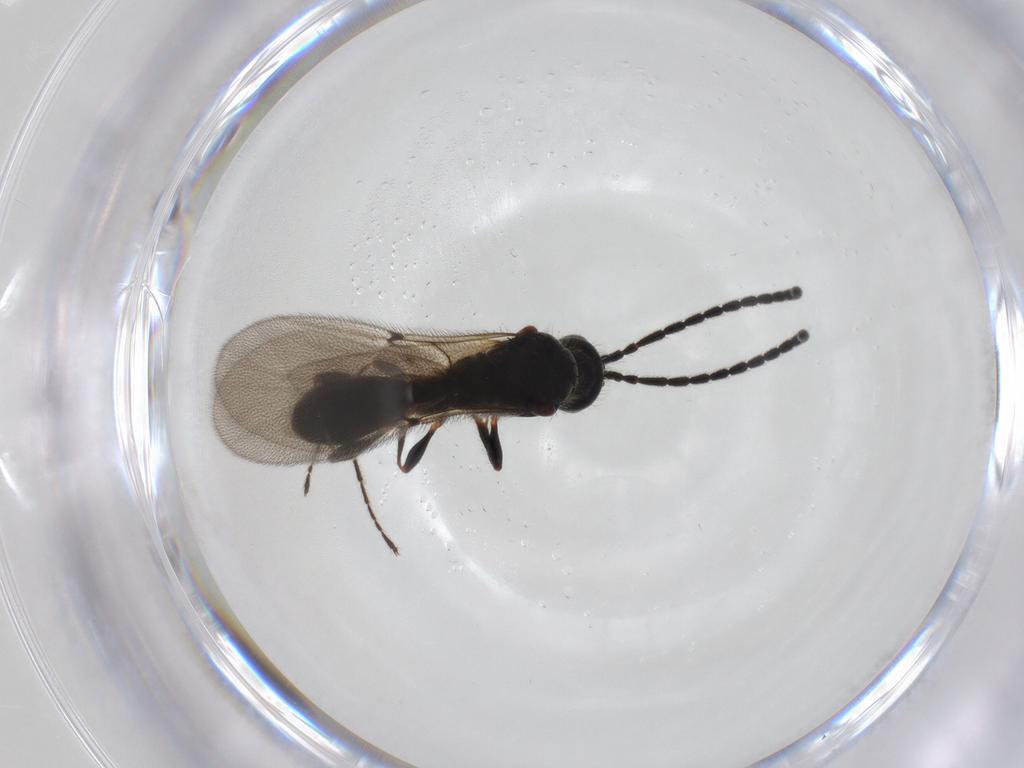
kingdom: Animalia
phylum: Arthropoda
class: Insecta
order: Hymenoptera
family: Diapriidae
